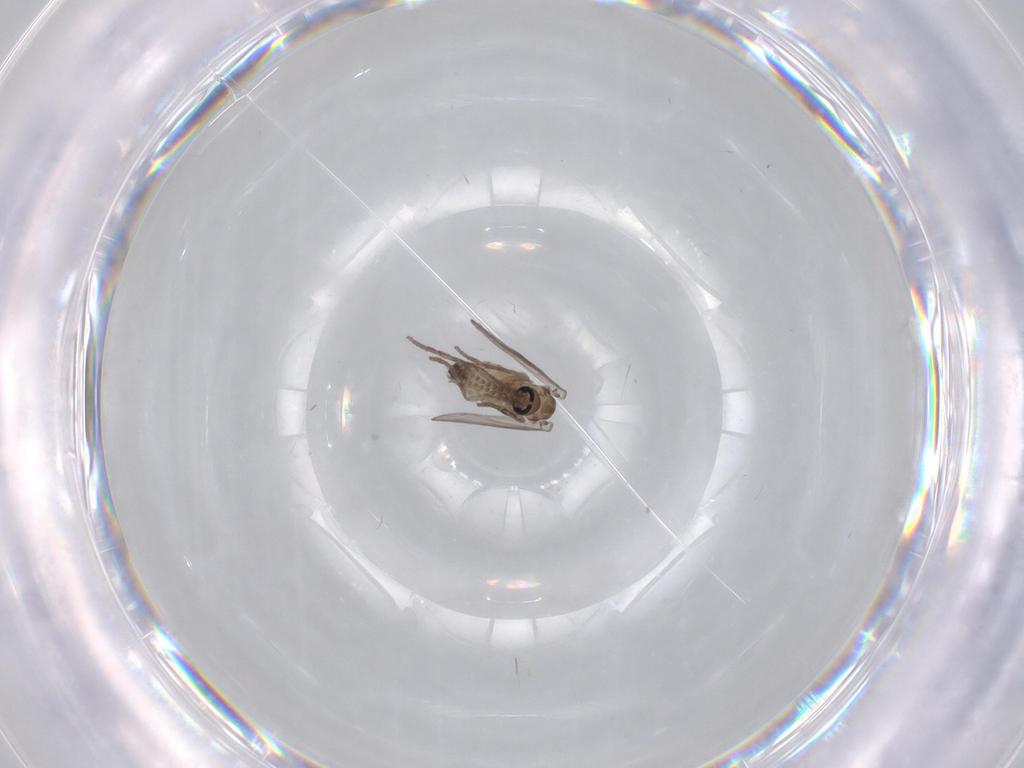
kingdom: Animalia
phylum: Arthropoda
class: Insecta
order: Diptera
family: Psychodidae
